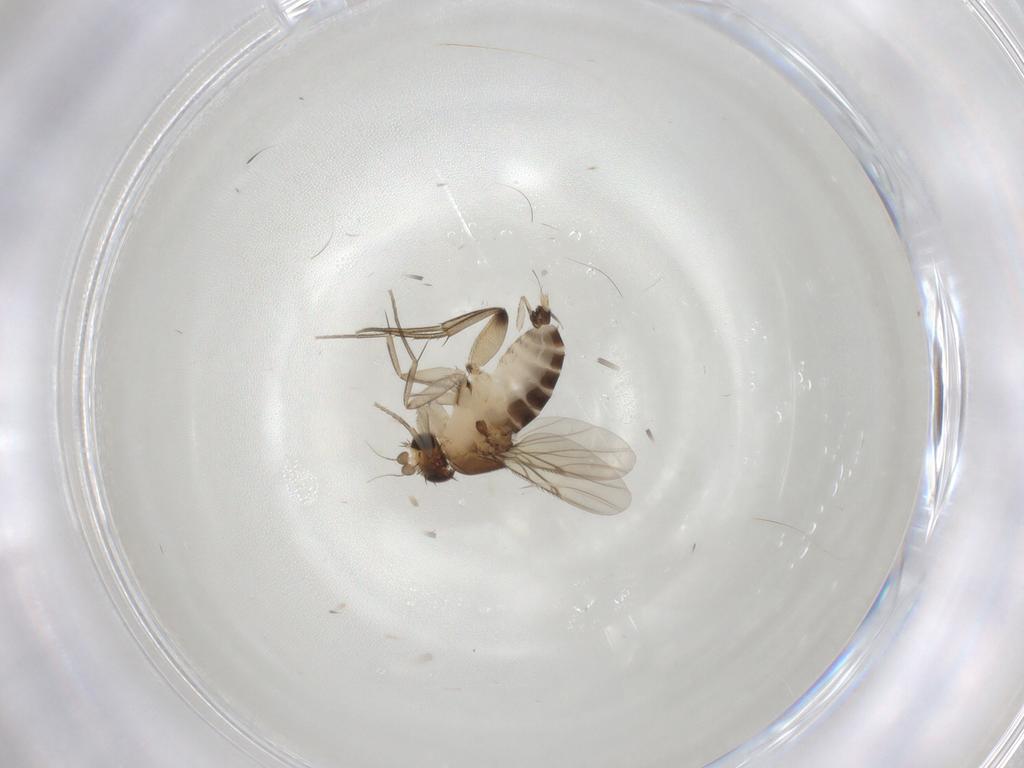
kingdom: Animalia
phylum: Arthropoda
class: Insecta
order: Diptera
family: Phoridae
